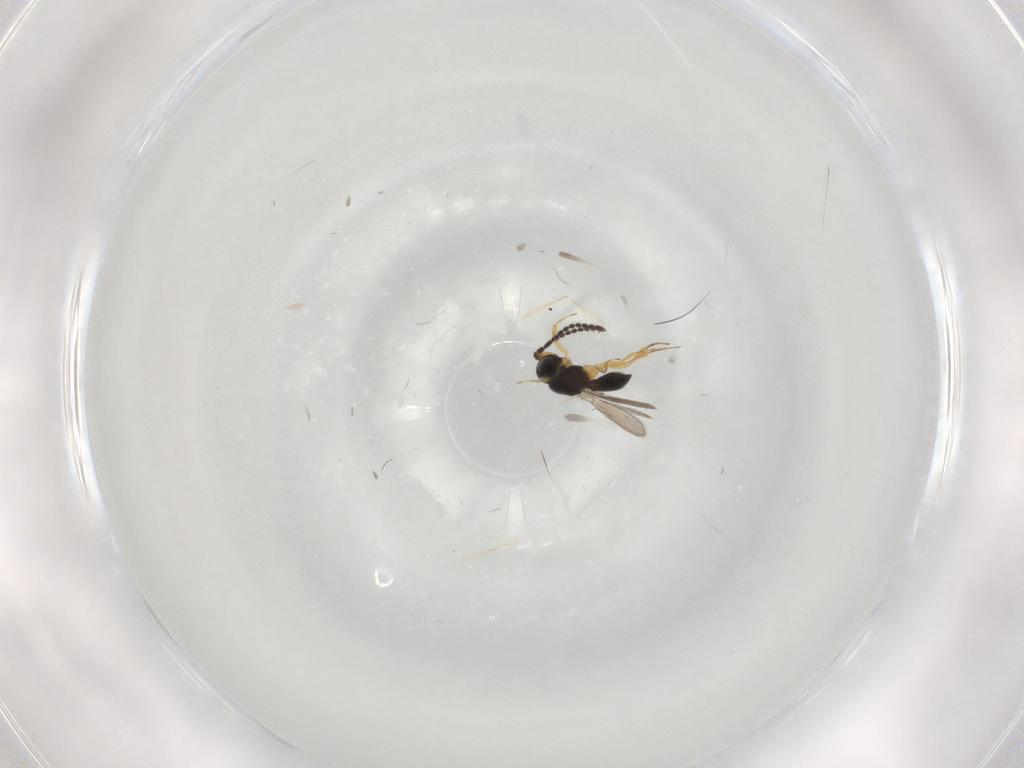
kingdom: Animalia
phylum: Arthropoda
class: Insecta
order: Hymenoptera
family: Scelionidae
